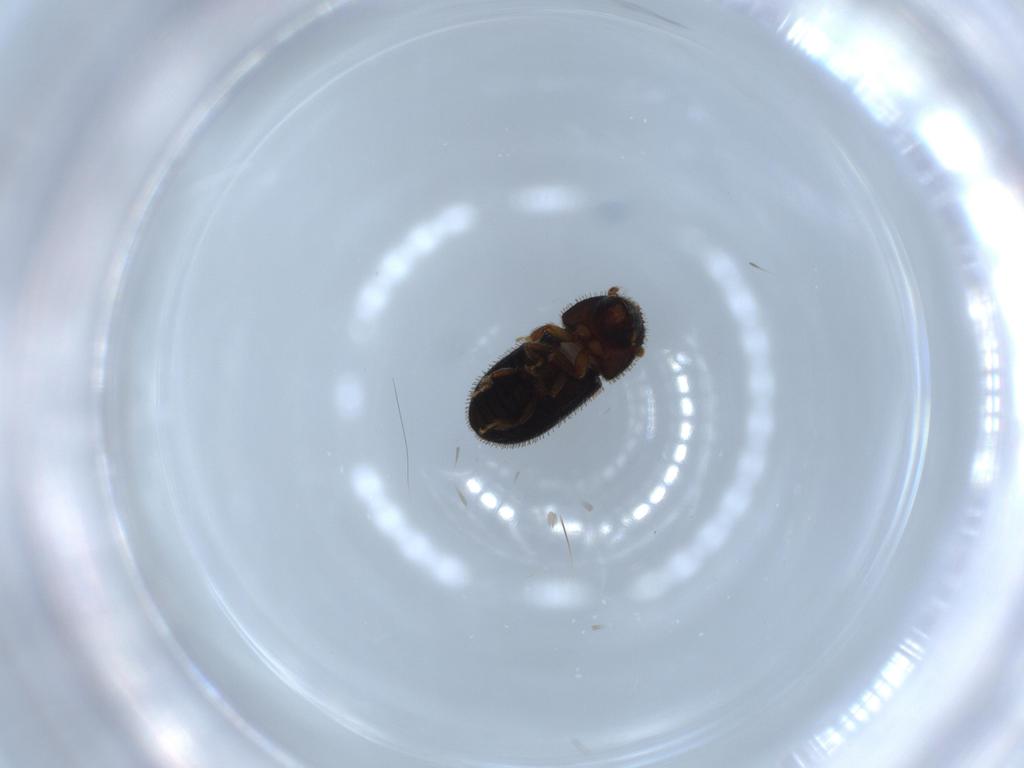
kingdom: Animalia
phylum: Arthropoda
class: Insecta
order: Coleoptera
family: Curculionidae
